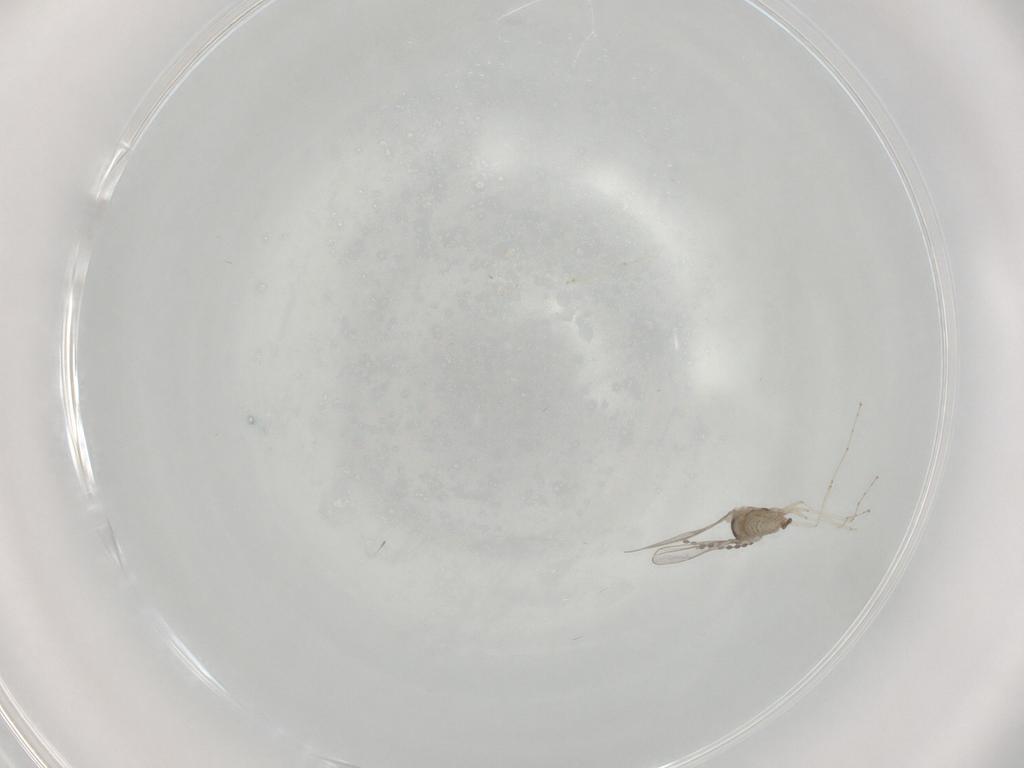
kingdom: Animalia
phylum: Arthropoda
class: Insecta
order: Diptera
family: Cecidomyiidae
